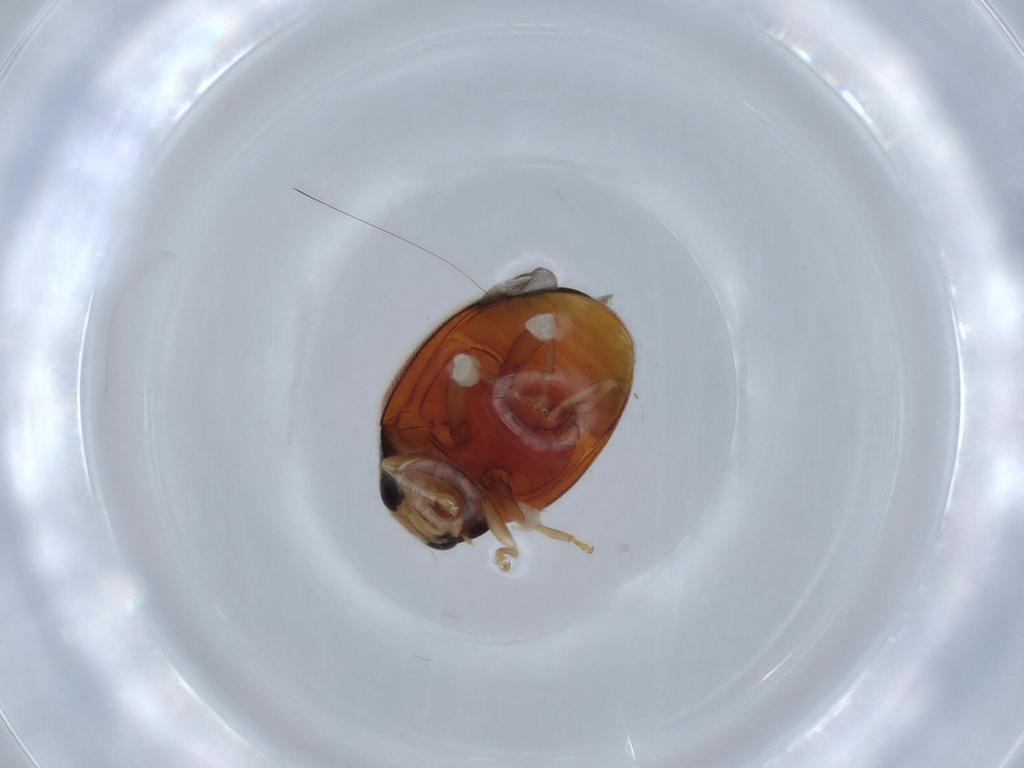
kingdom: Animalia
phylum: Arthropoda
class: Insecta
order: Coleoptera
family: Coccinellidae
